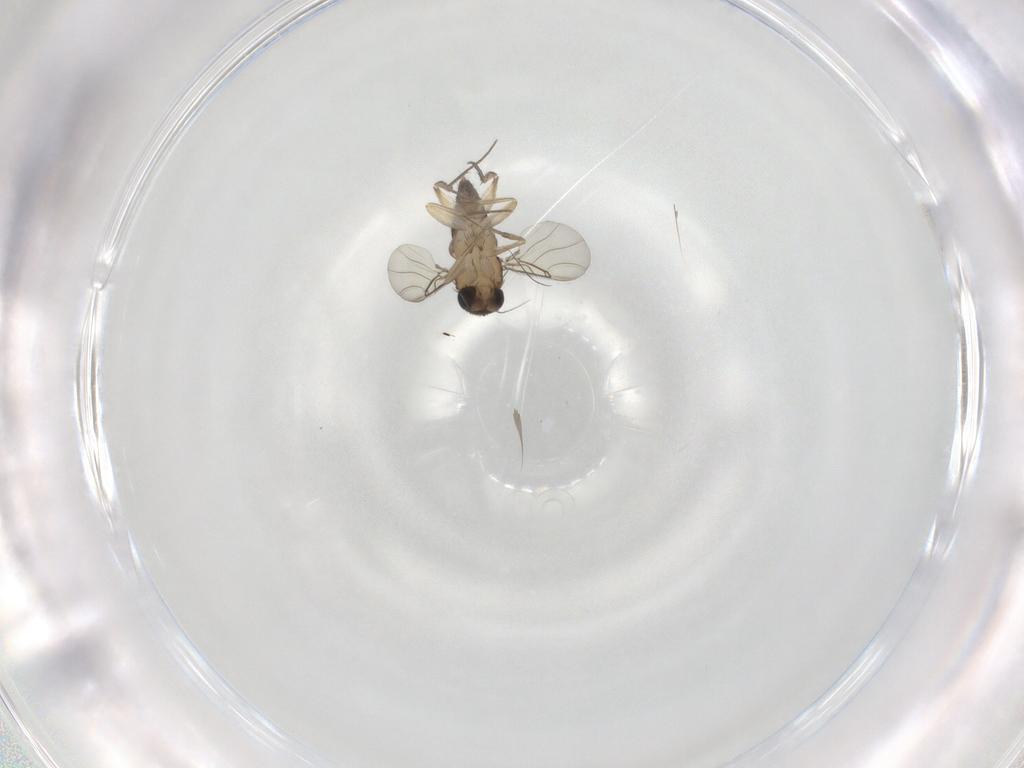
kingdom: Animalia
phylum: Arthropoda
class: Insecta
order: Diptera
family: Phoridae
